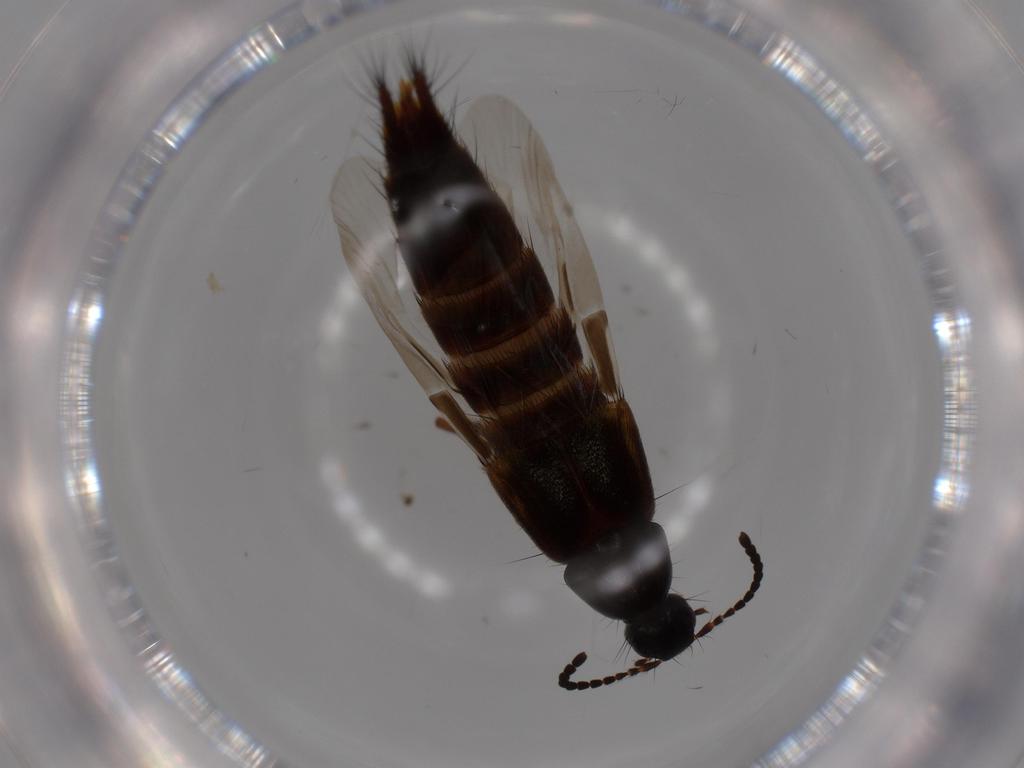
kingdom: Animalia
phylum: Arthropoda
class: Insecta
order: Coleoptera
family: Staphylinidae
